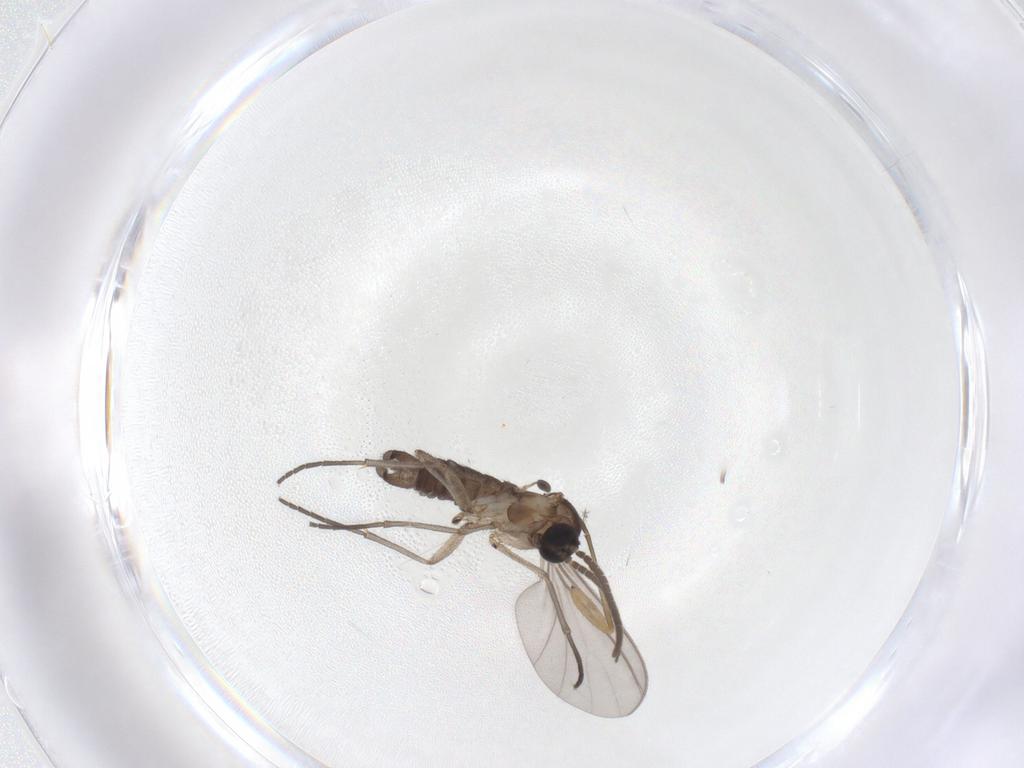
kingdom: Animalia
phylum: Arthropoda
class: Insecta
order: Diptera
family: Sciaridae
